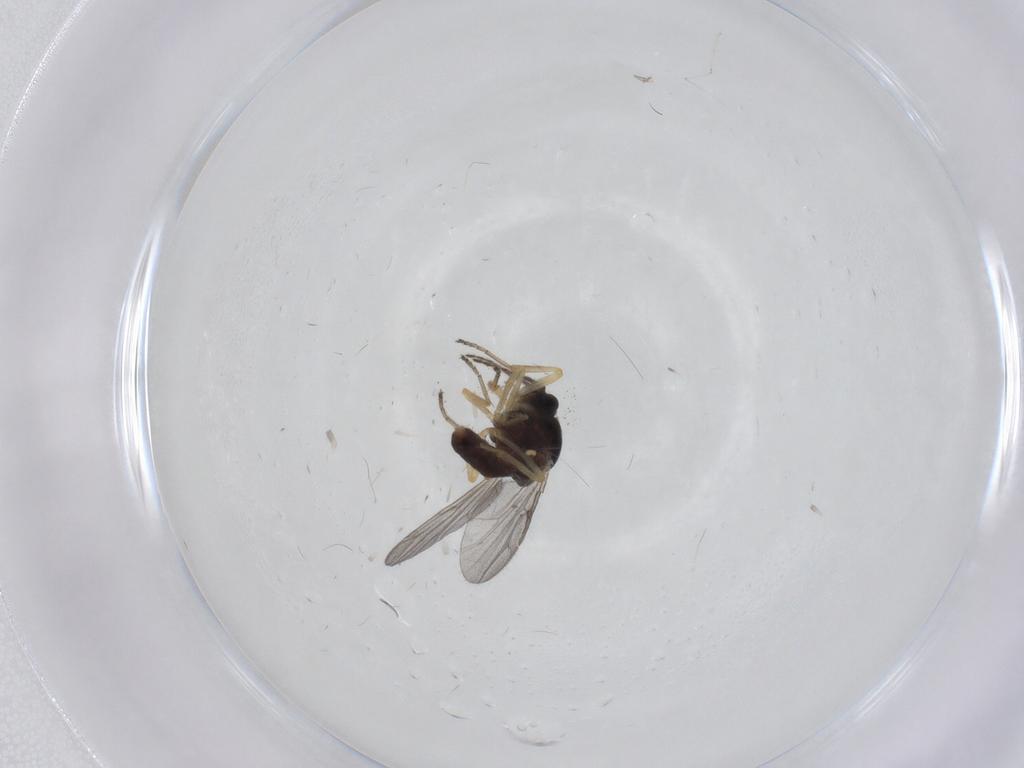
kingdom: Animalia
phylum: Arthropoda
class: Insecta
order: Diptera
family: Ceratopogonidae
